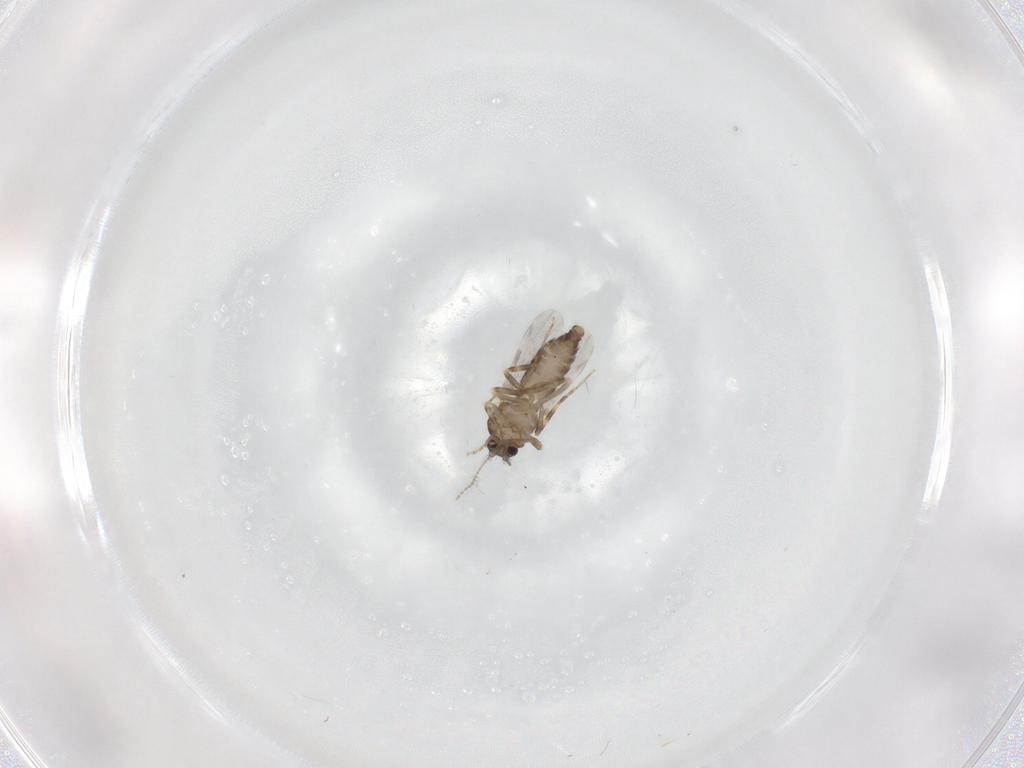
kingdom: Animalia
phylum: Arthropoda
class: Insecta
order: Diptera
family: Ceratopogonidae
